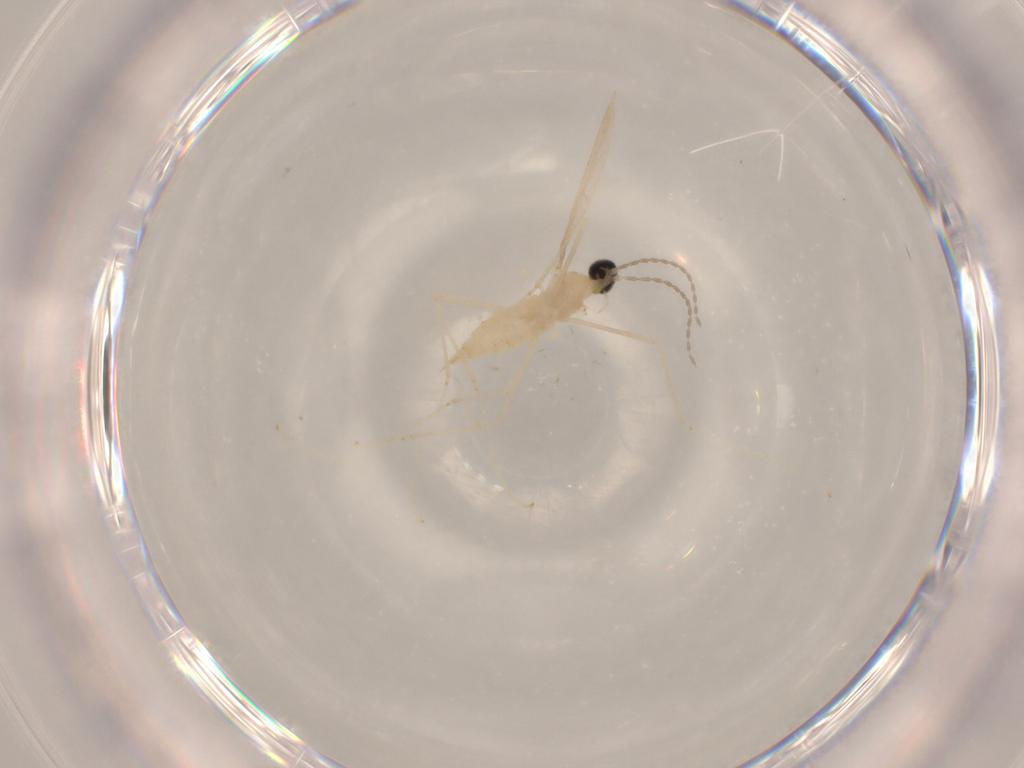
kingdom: Animalia
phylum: Arthropoda
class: Insecta
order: Diptera
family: Cecidomyiidae
